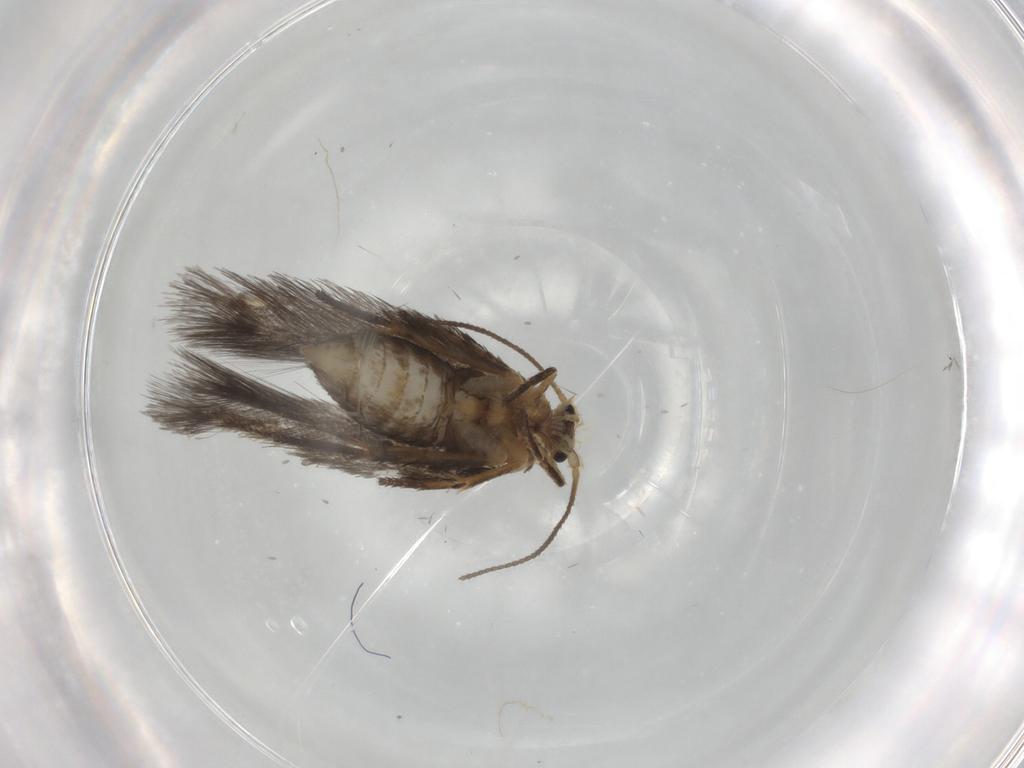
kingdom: Animalia
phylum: Arthropoda
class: Insecta
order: Lepidoptera
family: Nepticulidae
